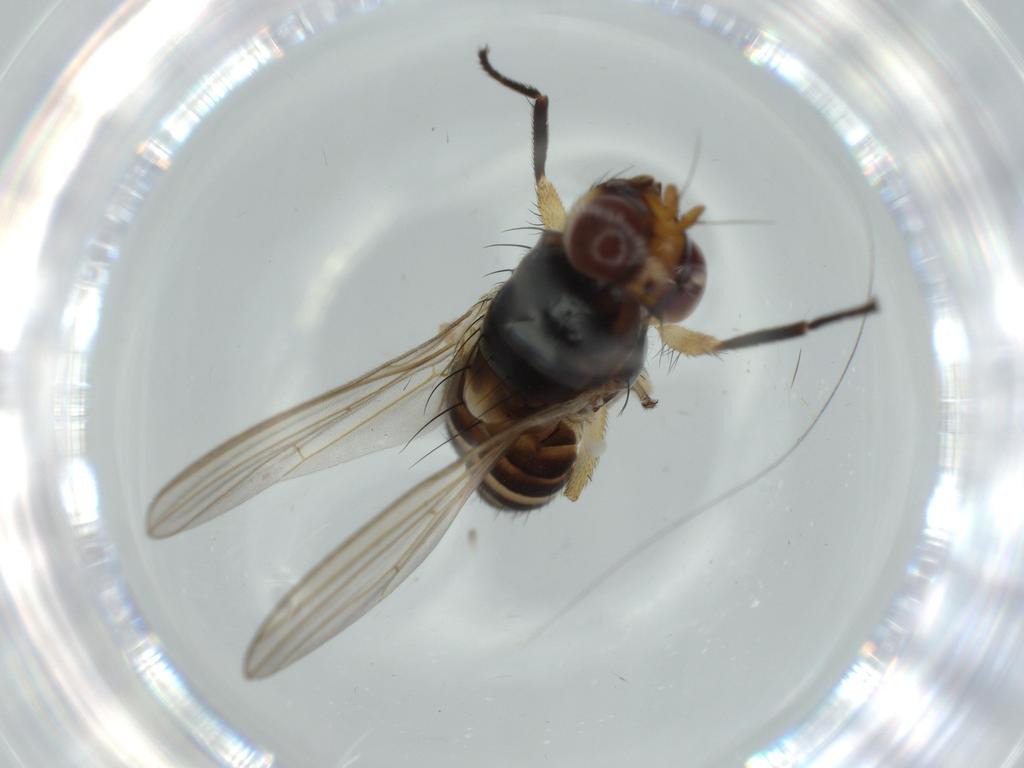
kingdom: Animalia
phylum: Arthropoda
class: Insecta
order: Diptera
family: Lauxaniidae
